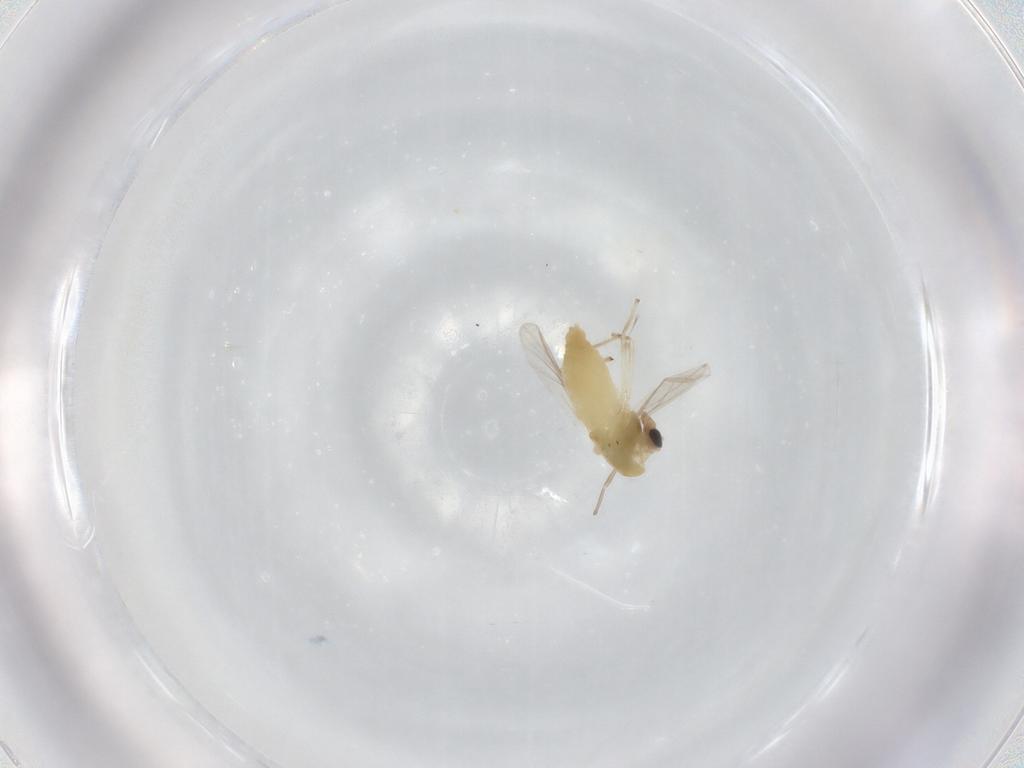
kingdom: Animalia
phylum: Arthropoda
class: Insecta
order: Diptera
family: Chironomidae
